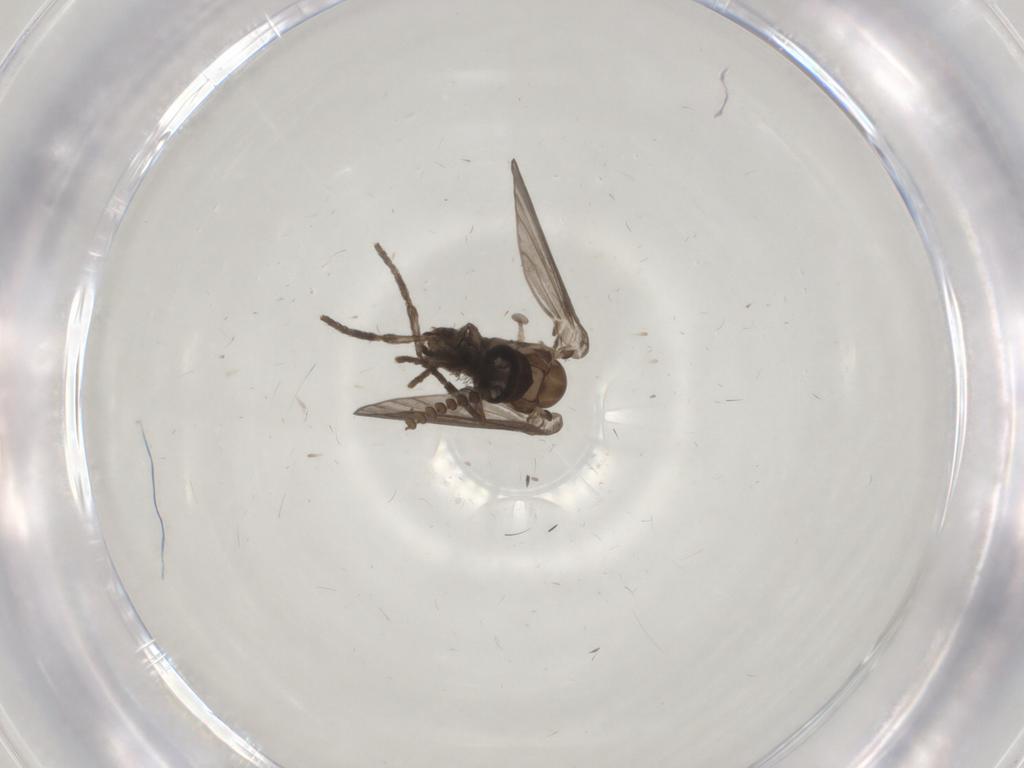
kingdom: Animalia
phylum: Arthropoda
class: Insecta
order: Diptera
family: Psychodidae
